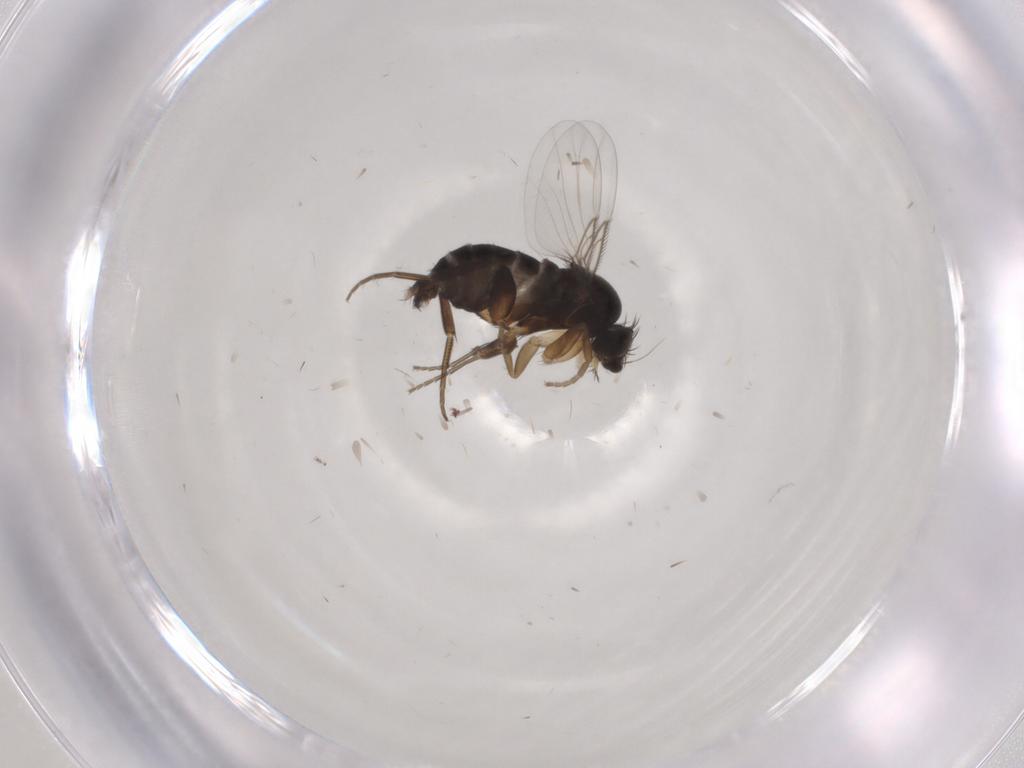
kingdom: Animalia
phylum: Arthropoda
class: Insecta
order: Diptera
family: Phoridae
